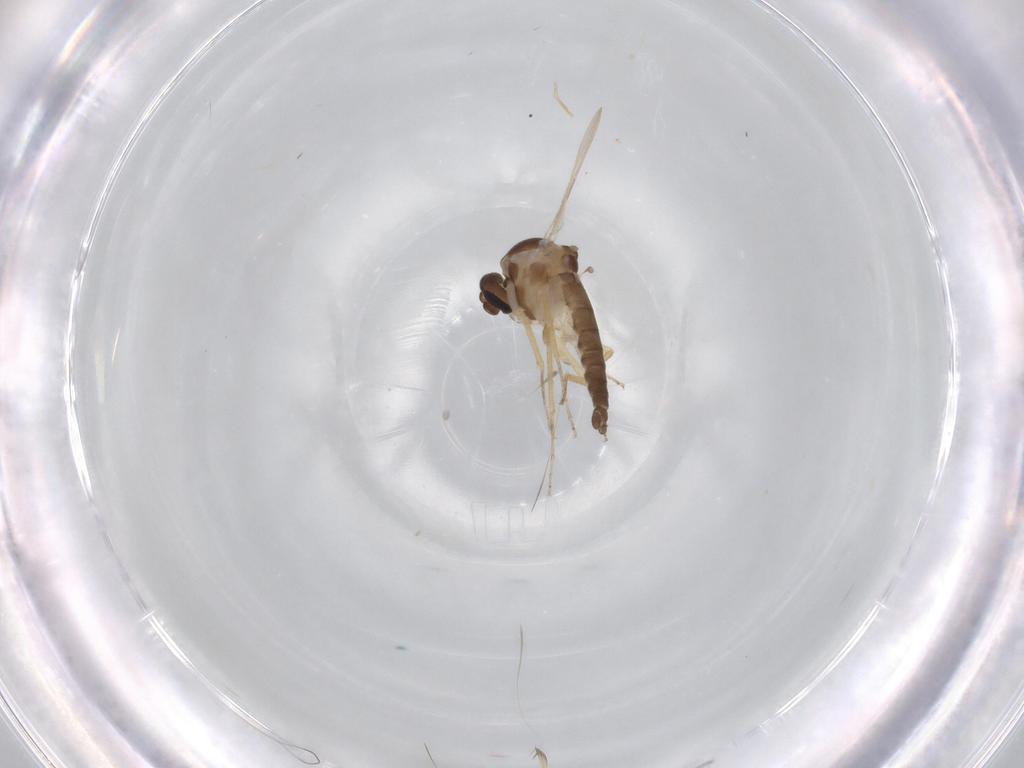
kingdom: Animalia
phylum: Arthropoda
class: Insecta
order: Diptera
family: Ceratopogonidae
